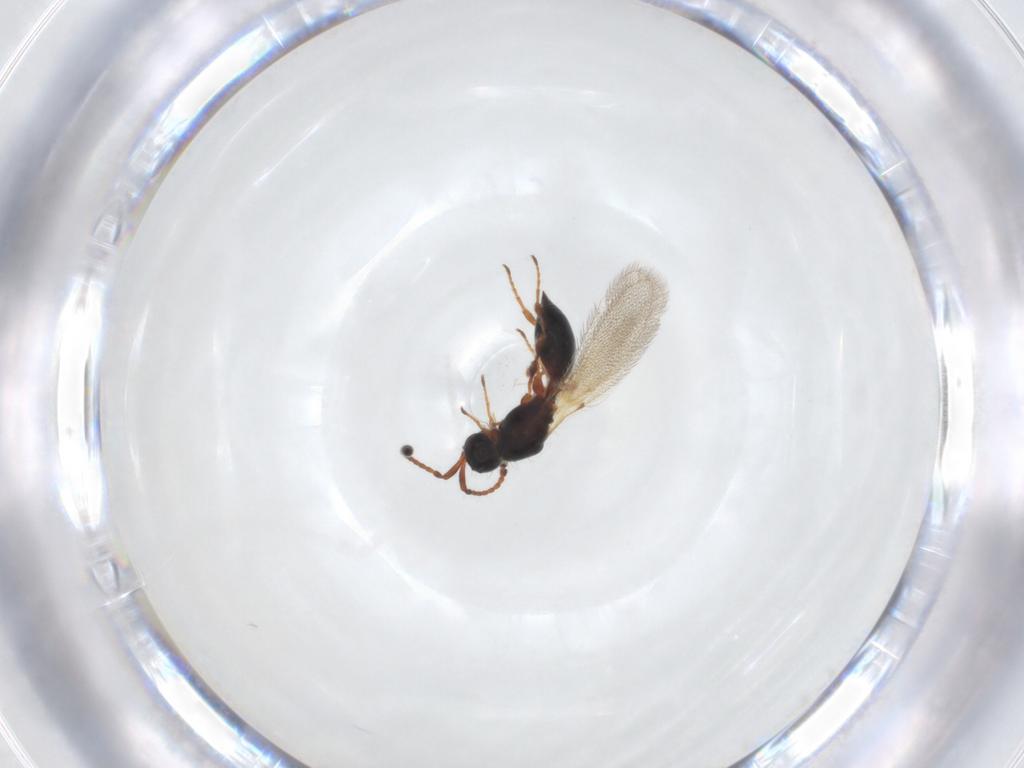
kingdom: Animalia
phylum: Arthropoda
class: Insecta
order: Hymenoptera
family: Diapriidae
